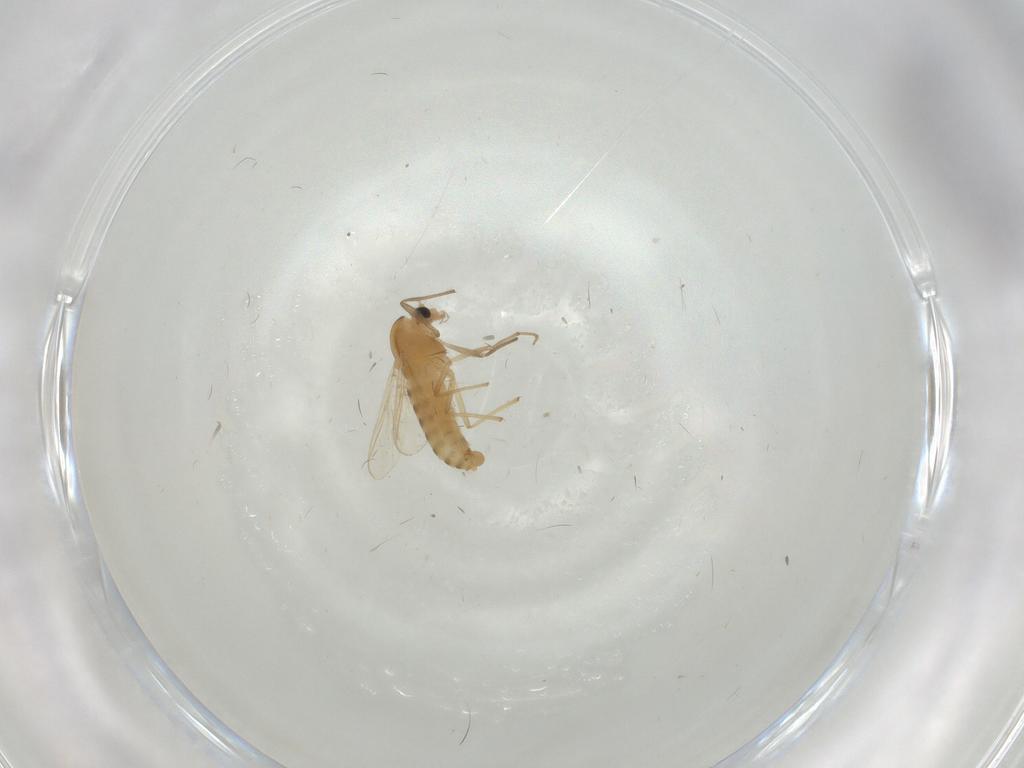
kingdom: Animalia
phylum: Arthropoda
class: Insecta
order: Diptera
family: Chironomidae
